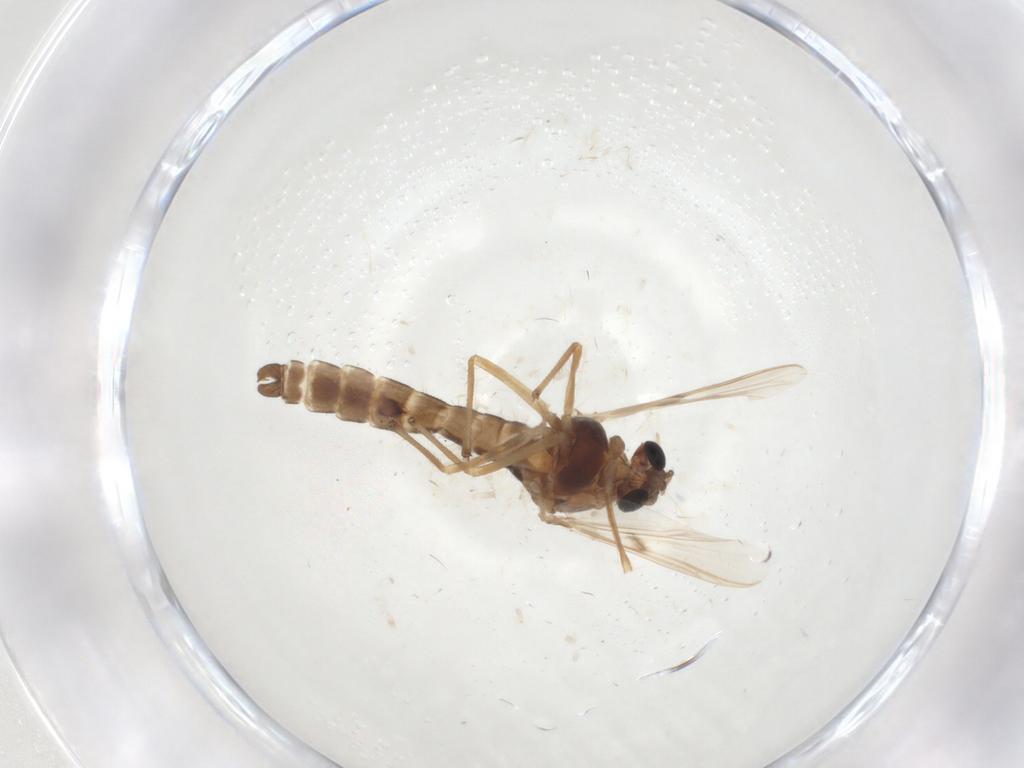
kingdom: Animalia
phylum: Arthropoda
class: Insecta
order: Diptera
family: Chironomidae
